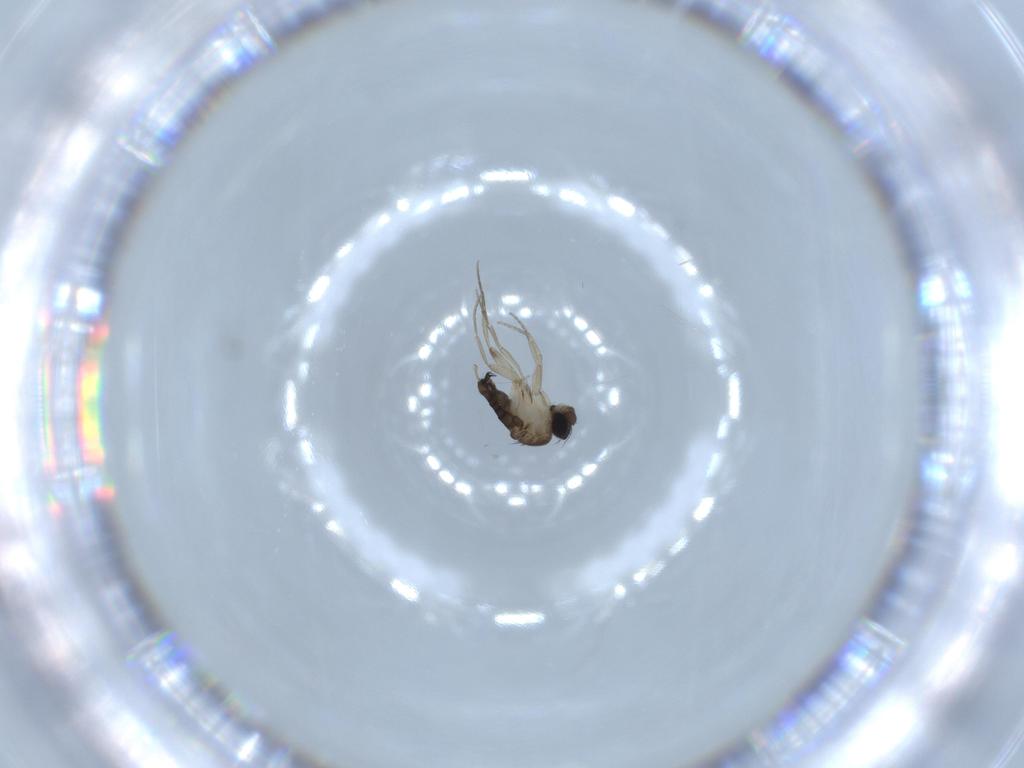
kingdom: Animalia
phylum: Arthropoda
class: Insecta
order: Diptera
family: Phoridae
